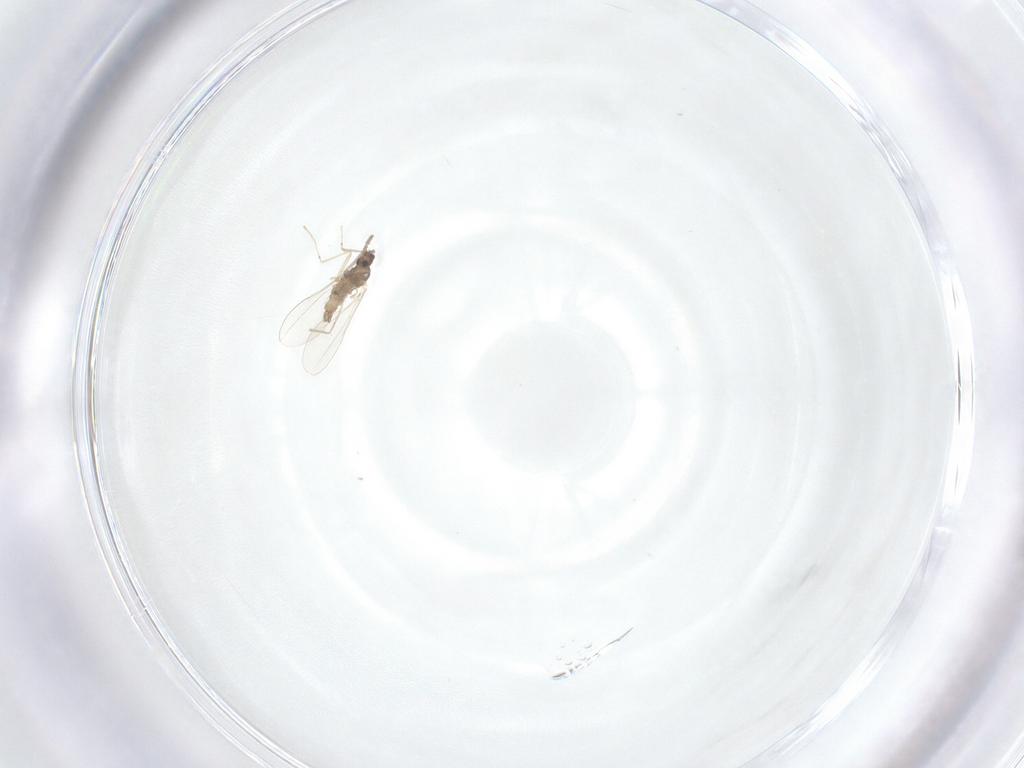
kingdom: Animalia
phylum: Arthropoda
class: Insecta
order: Diptera
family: Cecidomyiidae
